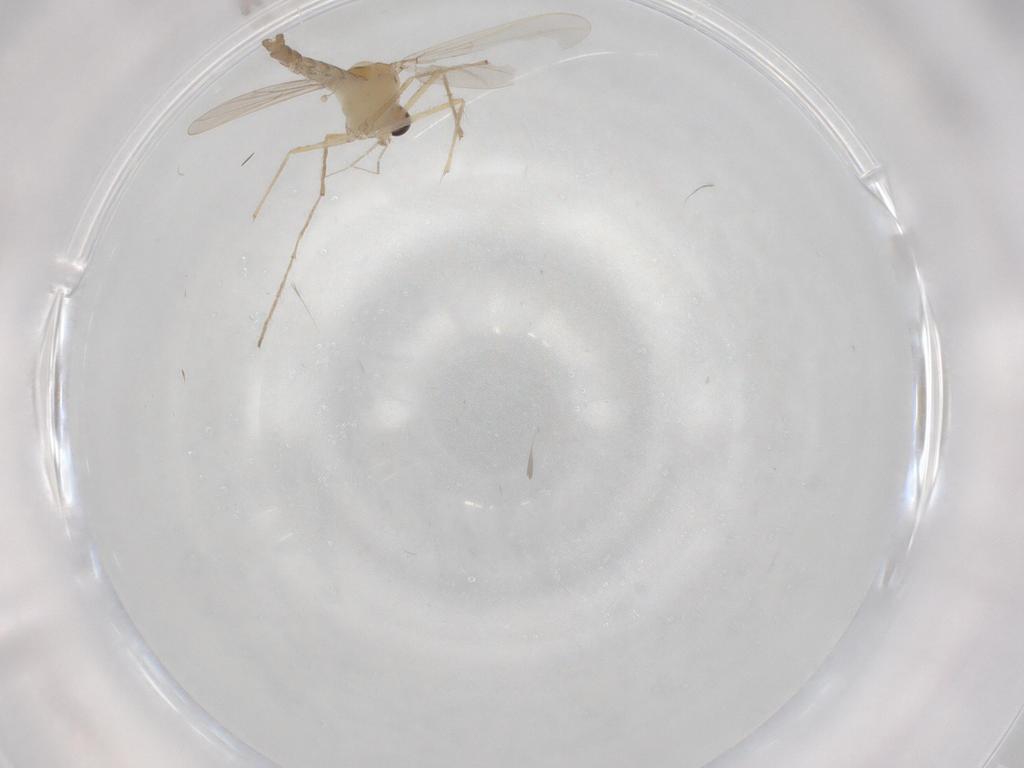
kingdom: Animalia
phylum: Arthropoda
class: Insecta
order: Diptera
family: Chironomidae
